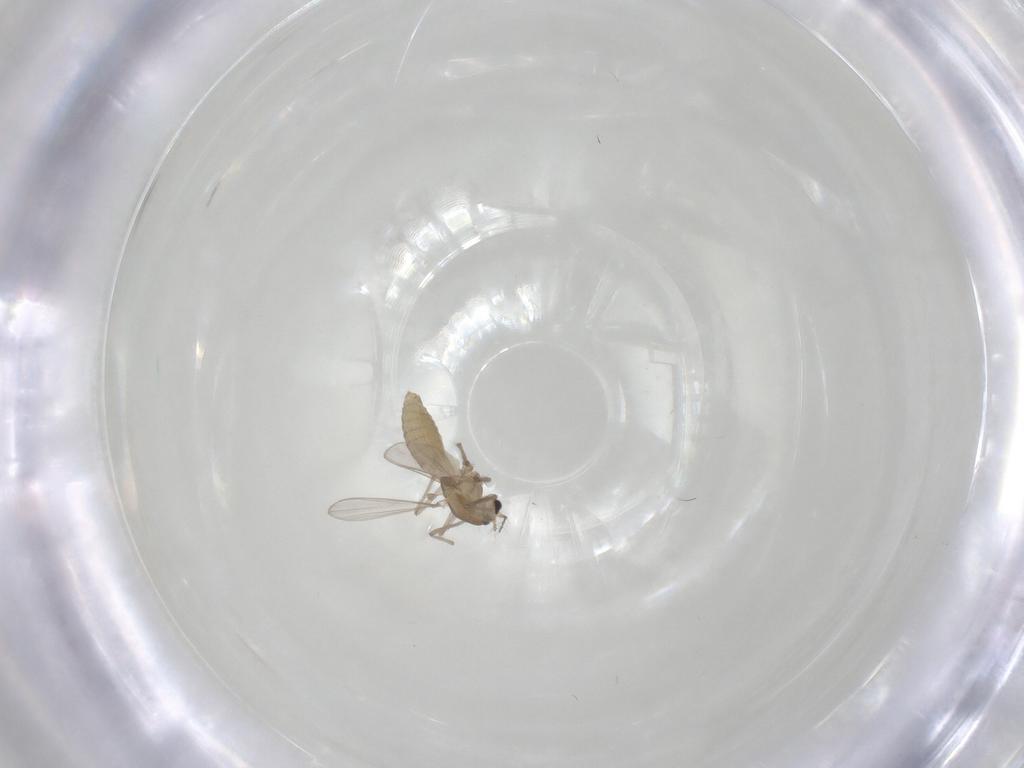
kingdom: Animalia
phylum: Arthropoda
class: Insecta
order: Diptera
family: Chironomidae
